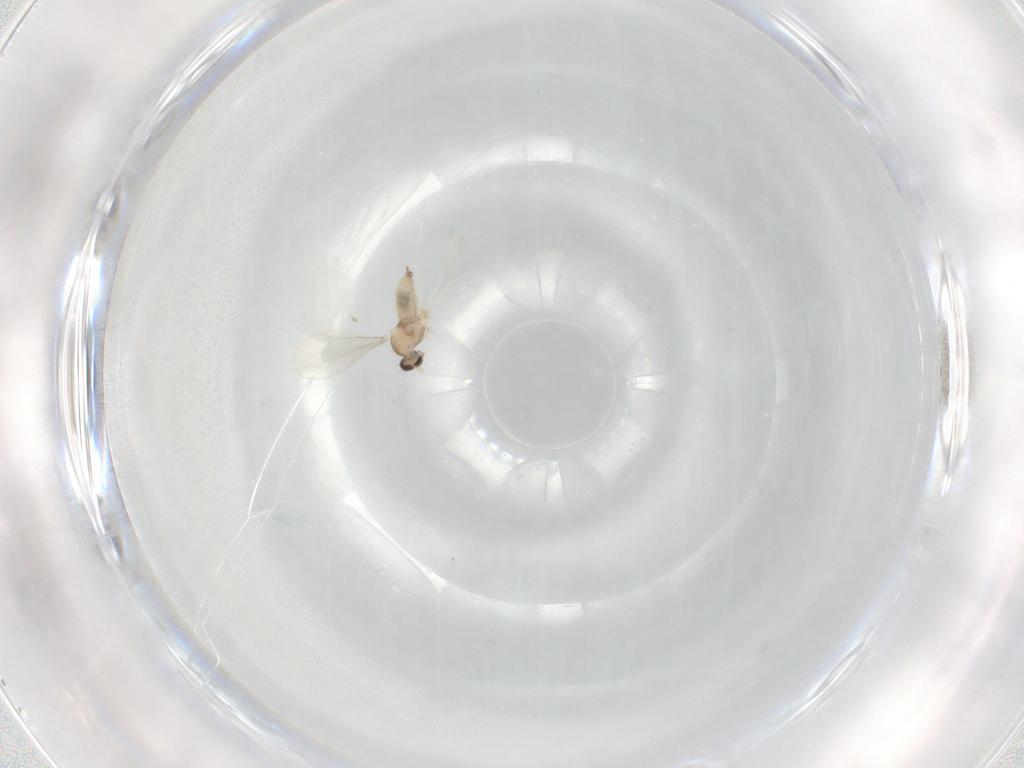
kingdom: Animalia
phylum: Arthropoda
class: Insecta
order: Diptera
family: Cecidomyiidae
